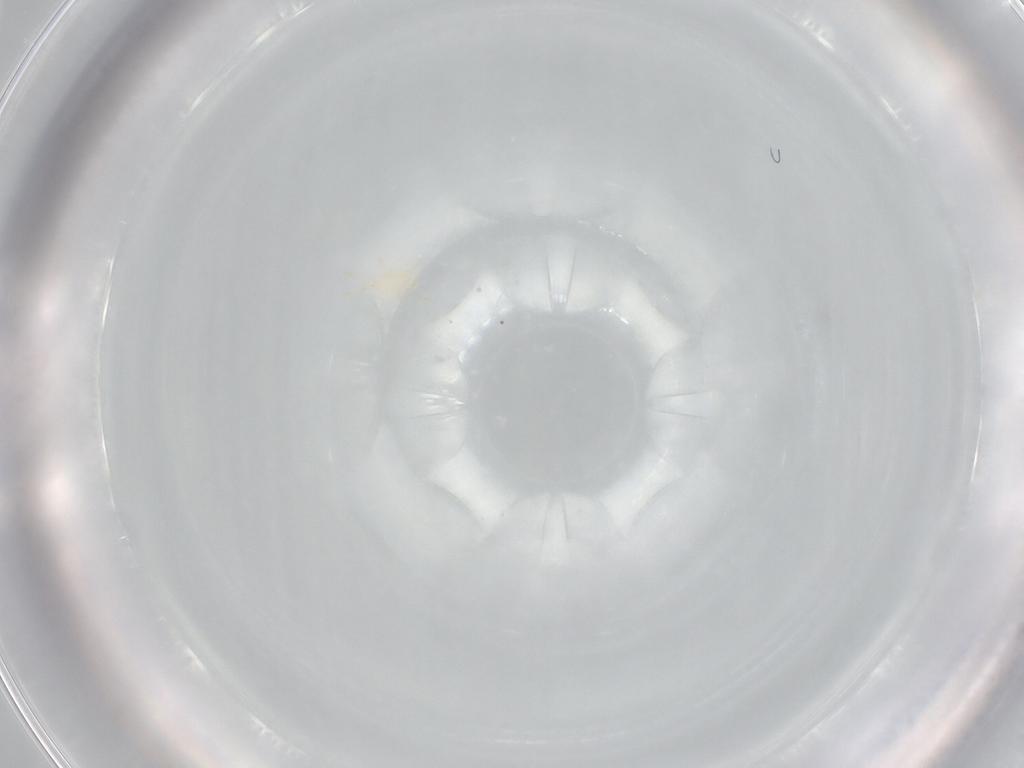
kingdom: Animalia
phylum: Arthropoda
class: Arachnida
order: Mesostigmata
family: Phytoseiidae
